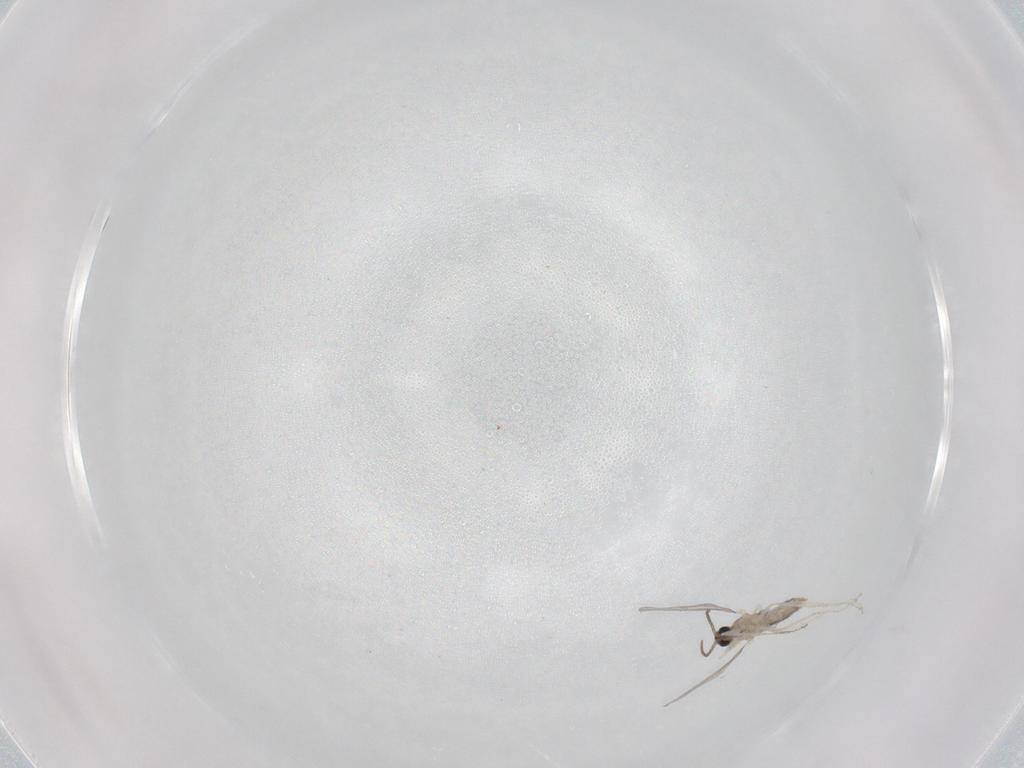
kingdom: Animalia
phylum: Arthropoda
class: Insecta
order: Diptera
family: Cecidomyiidae
